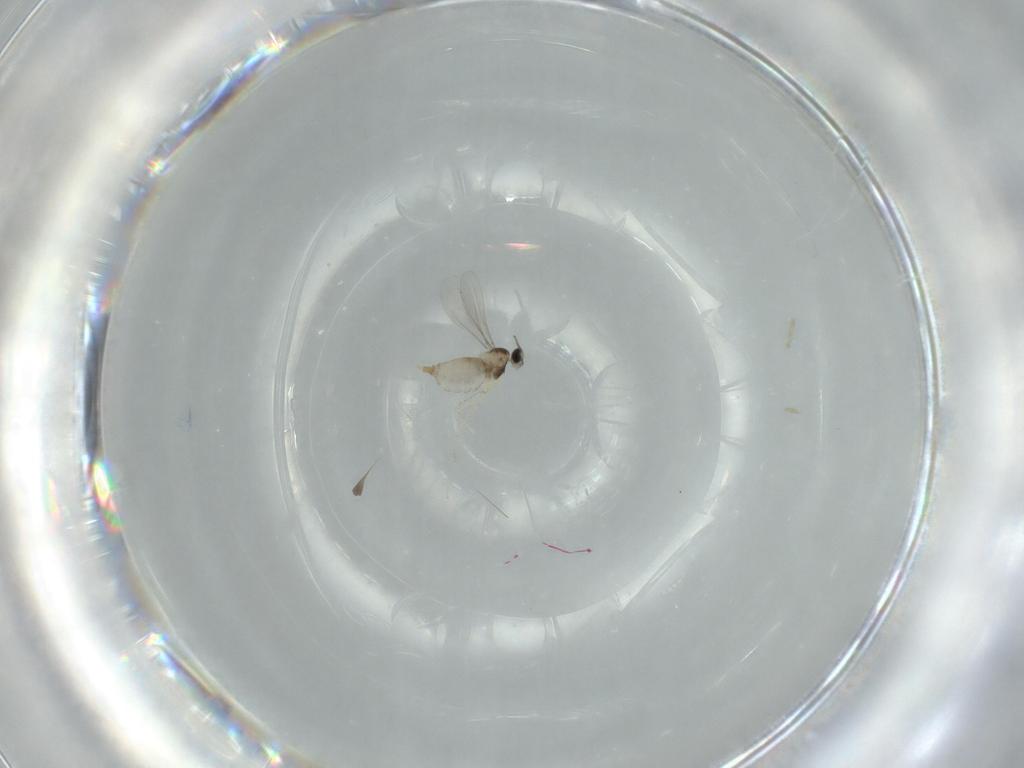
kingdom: Animalia
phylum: Arthropoda
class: Insecta
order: Diptera
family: Cecidomyiidae
